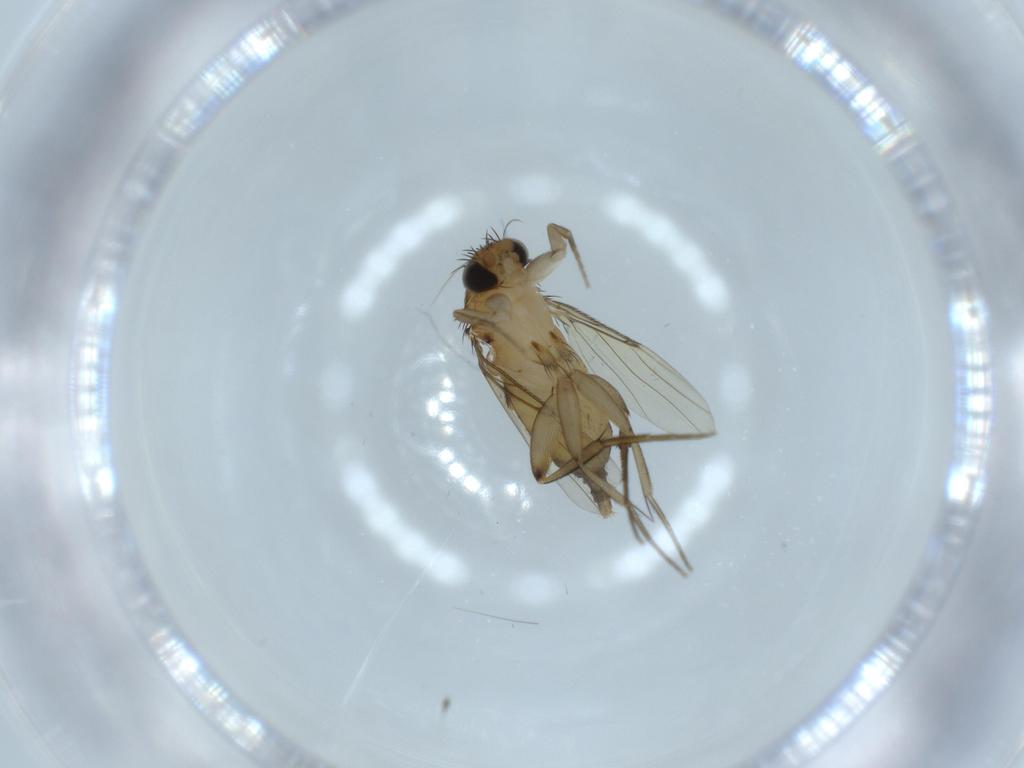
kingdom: Animalia
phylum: Arthropoda
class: Insecta
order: Diptera
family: Phoridae
